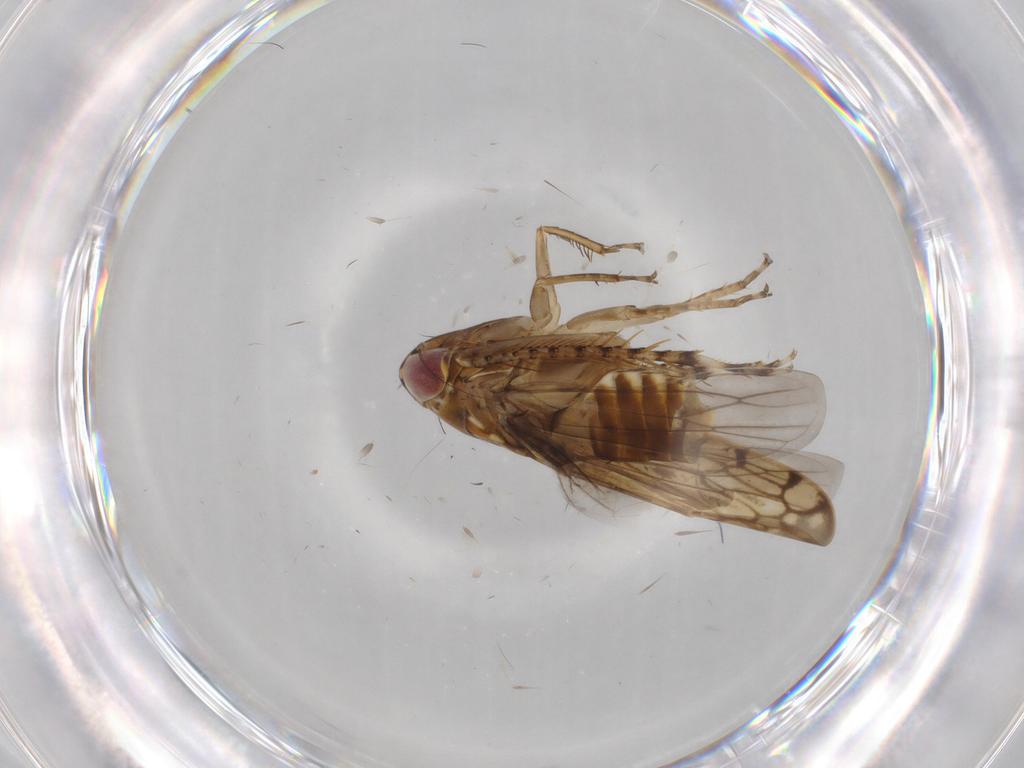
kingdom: Animalia
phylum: Arthropoda
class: Insecta
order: Hemiptera
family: Cicadellidae
